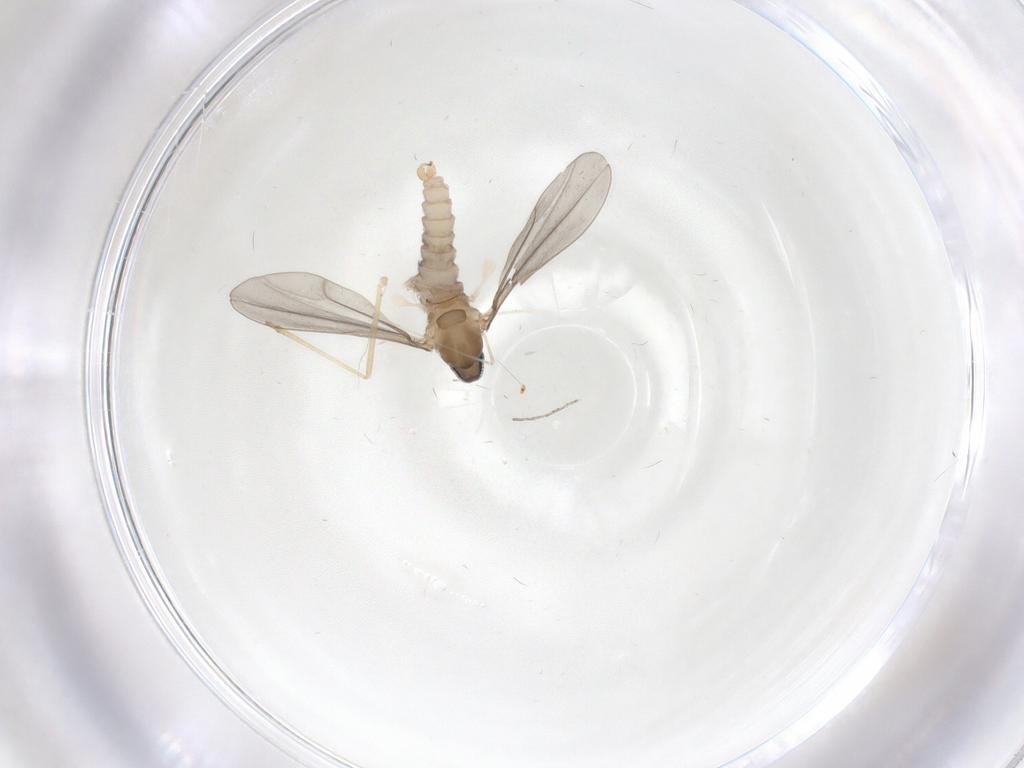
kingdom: Animalia
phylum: Arthropoda
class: Insecta
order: Diptera
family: Cecidomyiidae
